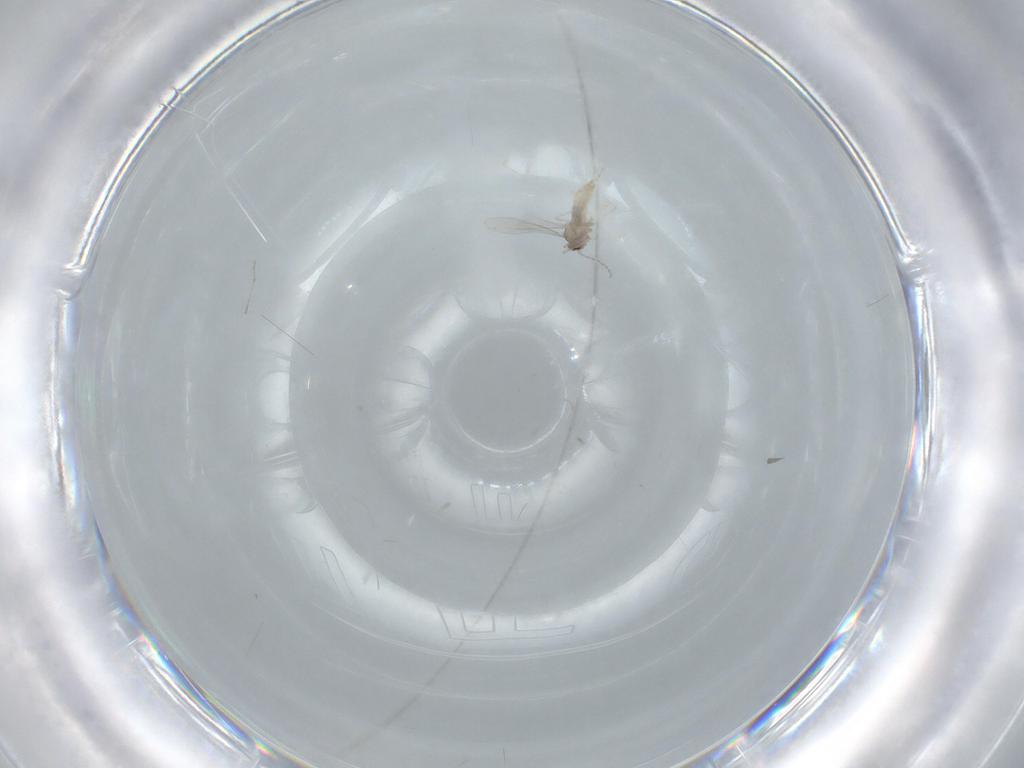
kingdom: Animalia
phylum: Arthropoda
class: Insecta
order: Diptera
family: Cecidomyiidae
